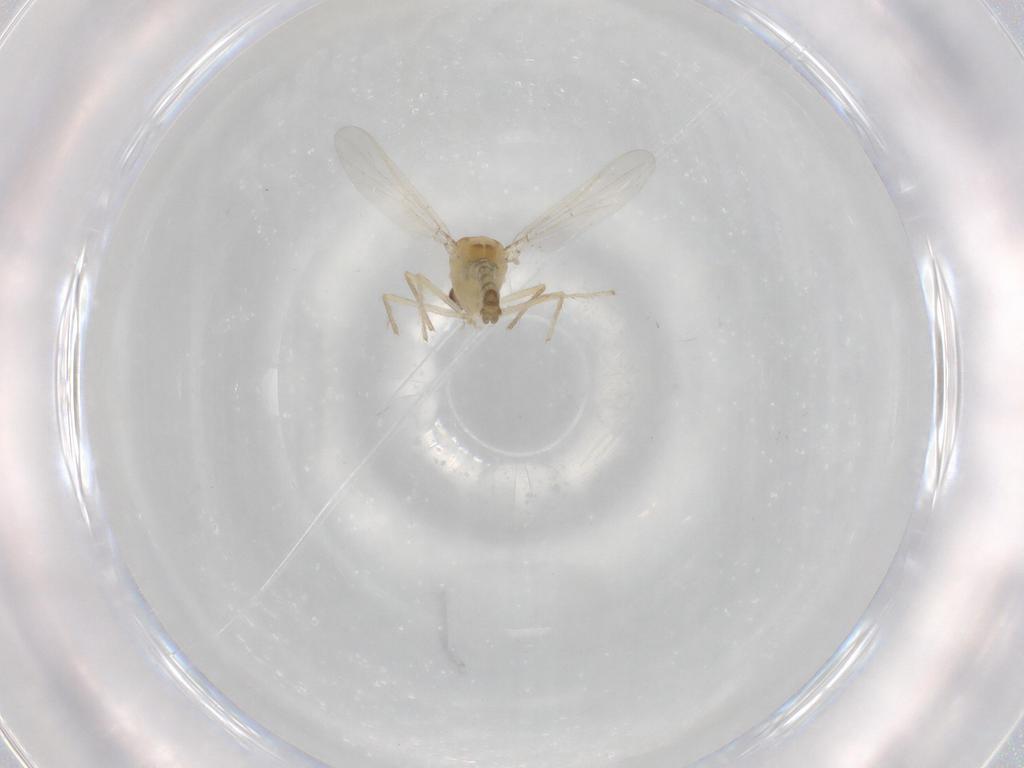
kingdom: Animalia
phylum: Arthropoda
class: Insecta
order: Diptera
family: Chironomidae
